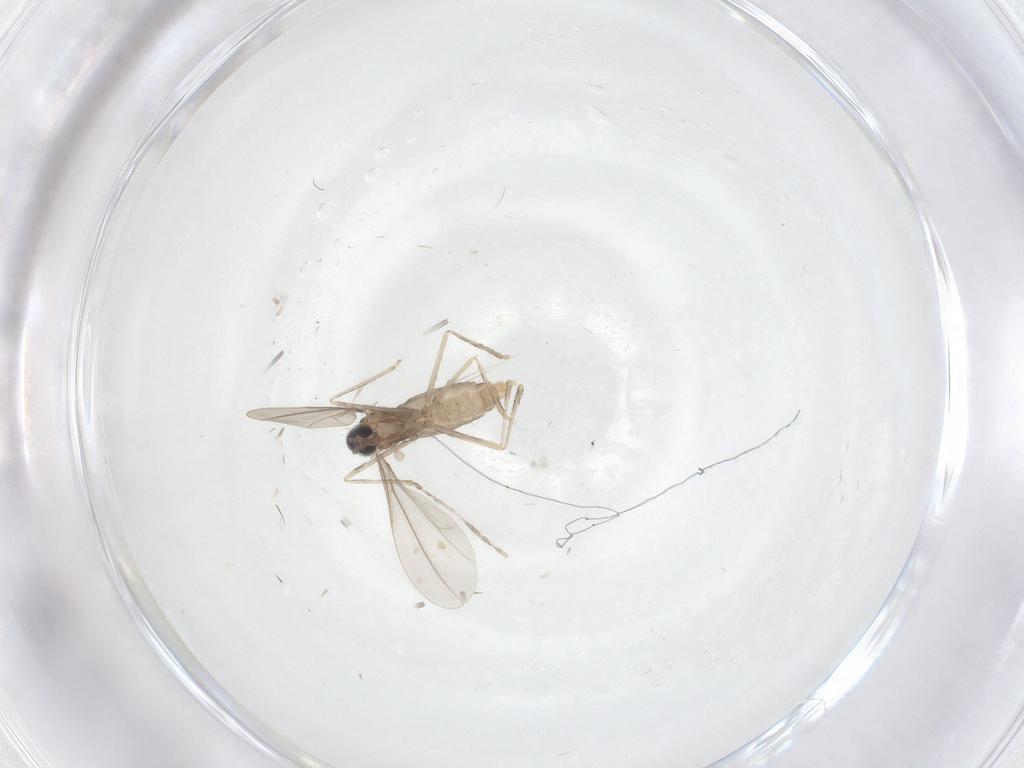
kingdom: Animalia
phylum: Arthropoda
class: Insecta
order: Diptera
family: Cecidomyiidae
